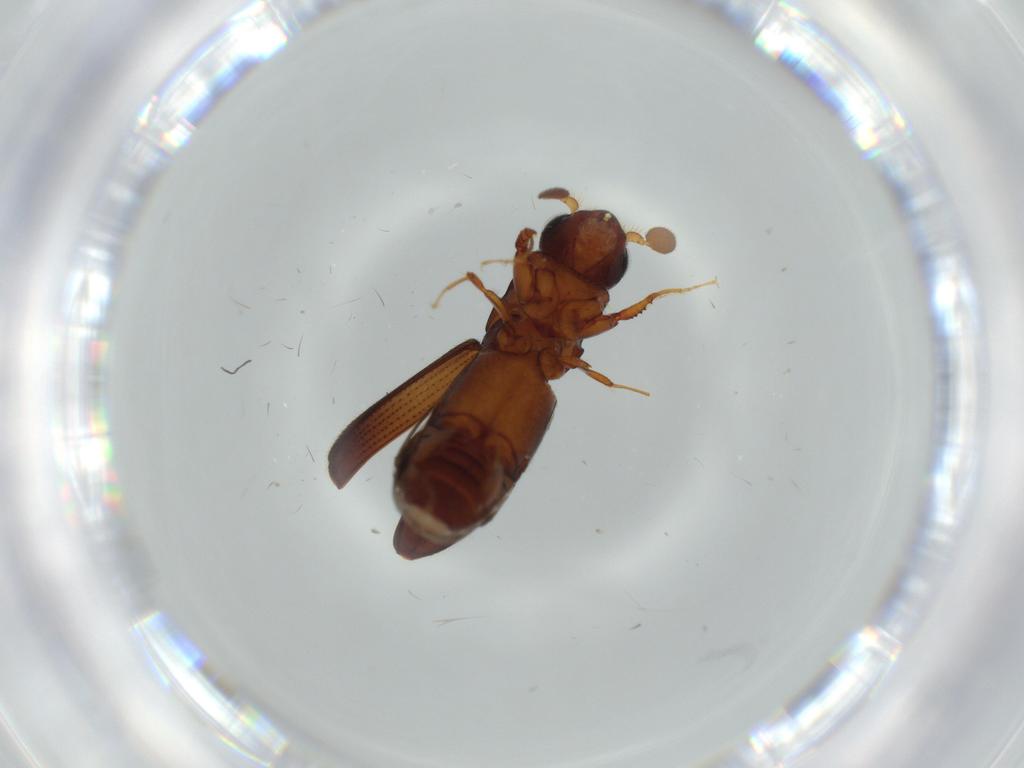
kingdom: Animalia
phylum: Arthropoda
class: Insecta
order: Coleoptera
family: Curculionidae
